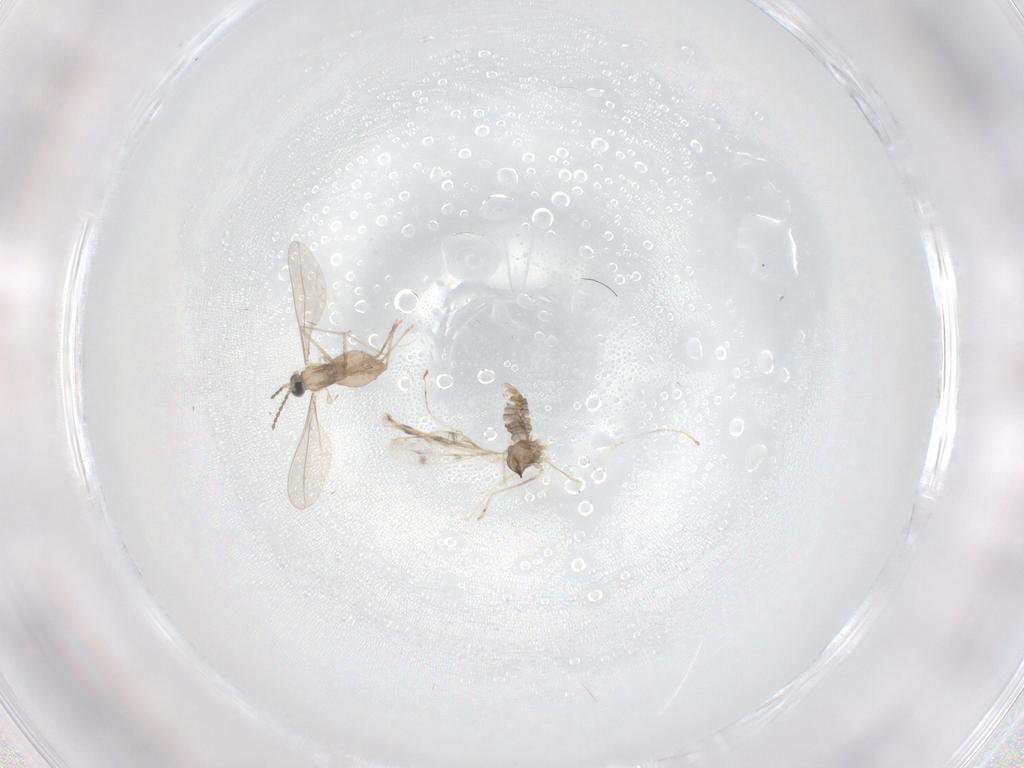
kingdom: Animalia
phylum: Arthropoda
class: Insecta
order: Diptera
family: Cecidomyiidae
